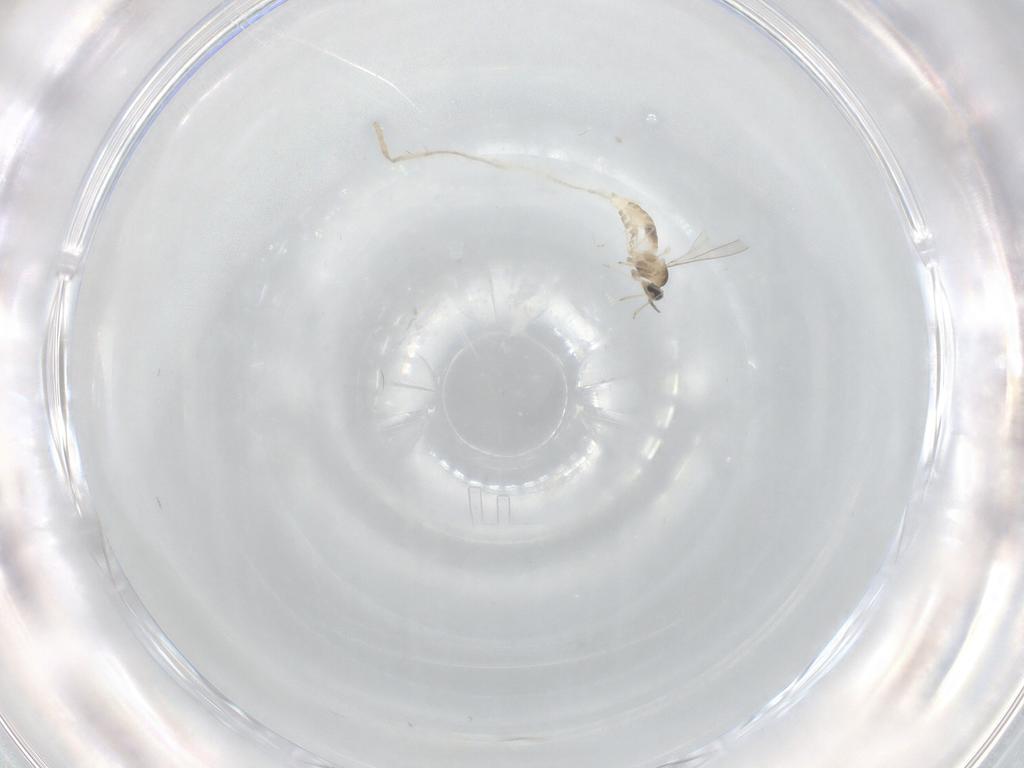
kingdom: Animalia
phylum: Arthropoda
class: Insecta
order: Diptera
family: Cecidomyiidae
